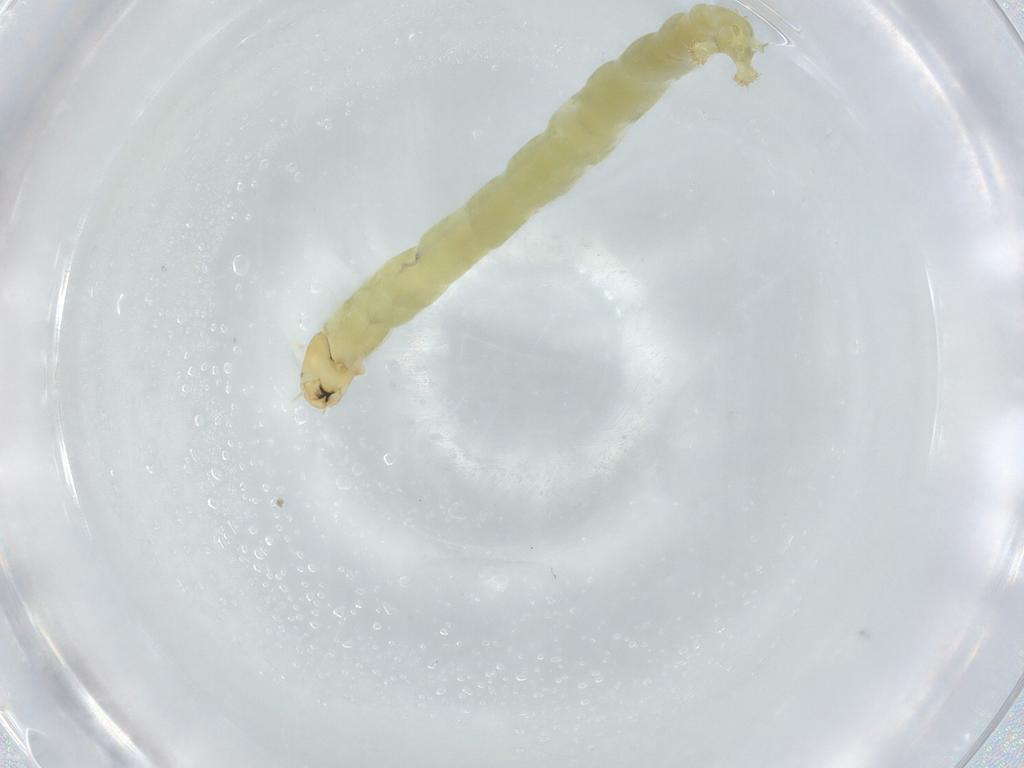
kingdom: Animalia
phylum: Arthropoda
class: Insecta
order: Diptera
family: Chironomidae
